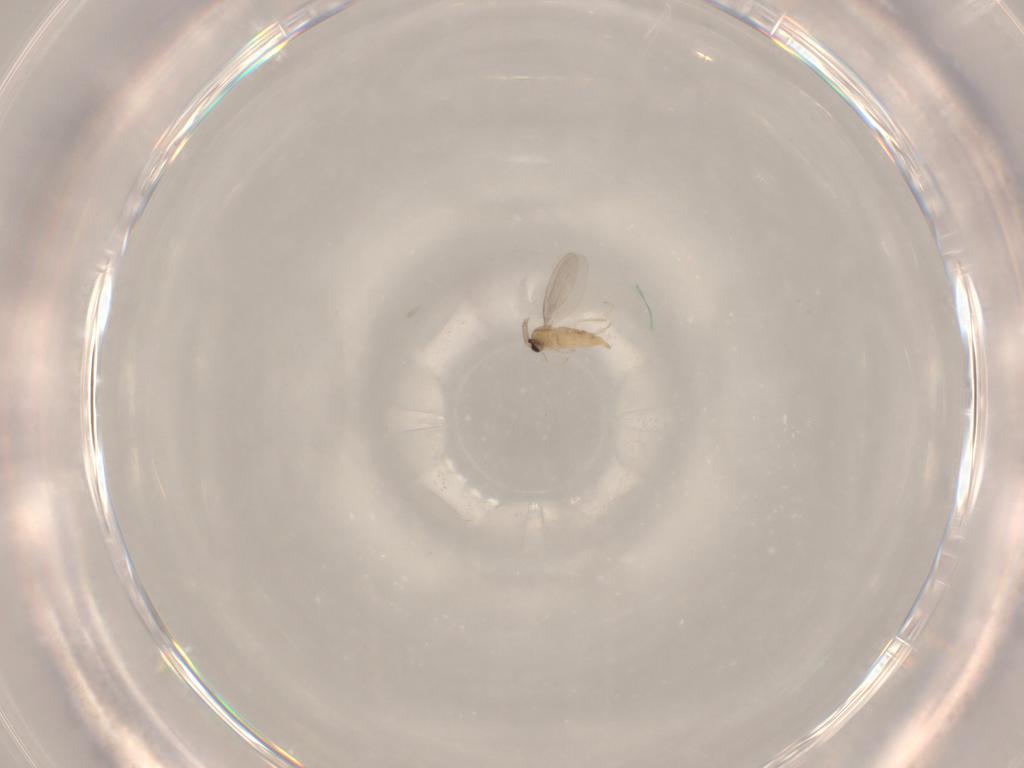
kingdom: Animalia
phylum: Arthropoda
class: Insecta
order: Diptera
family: Cecidomyiidae
